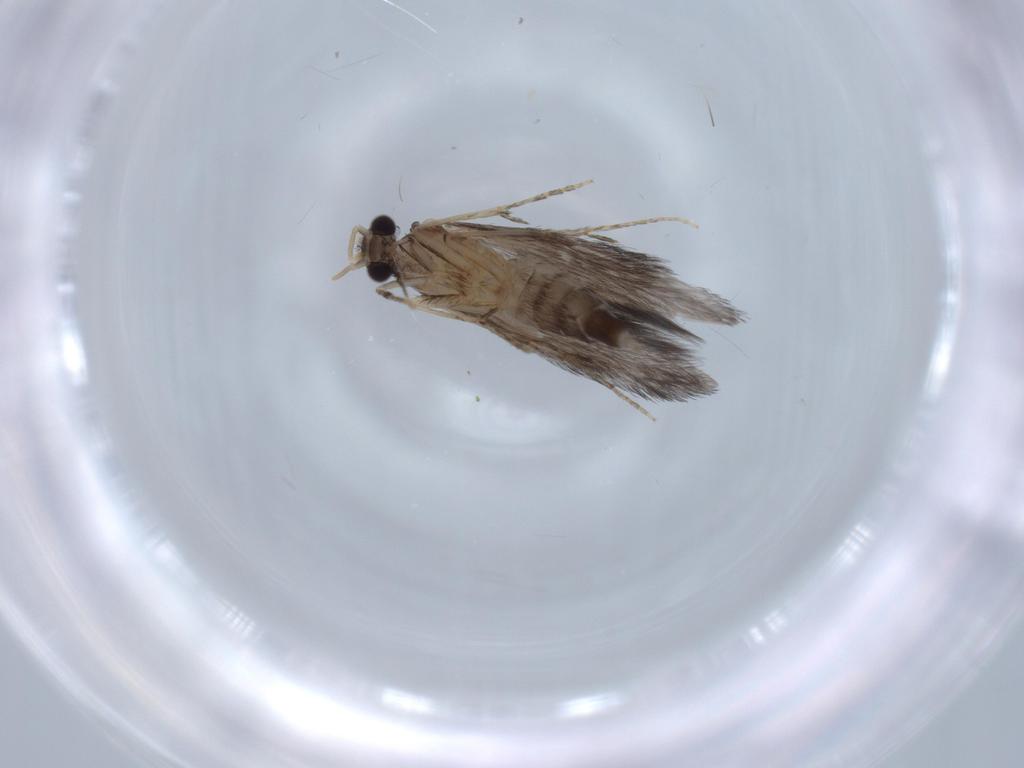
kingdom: Animalia
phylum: Arthropoda
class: Insecta
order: Trichoptera
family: Hydroptilidae
